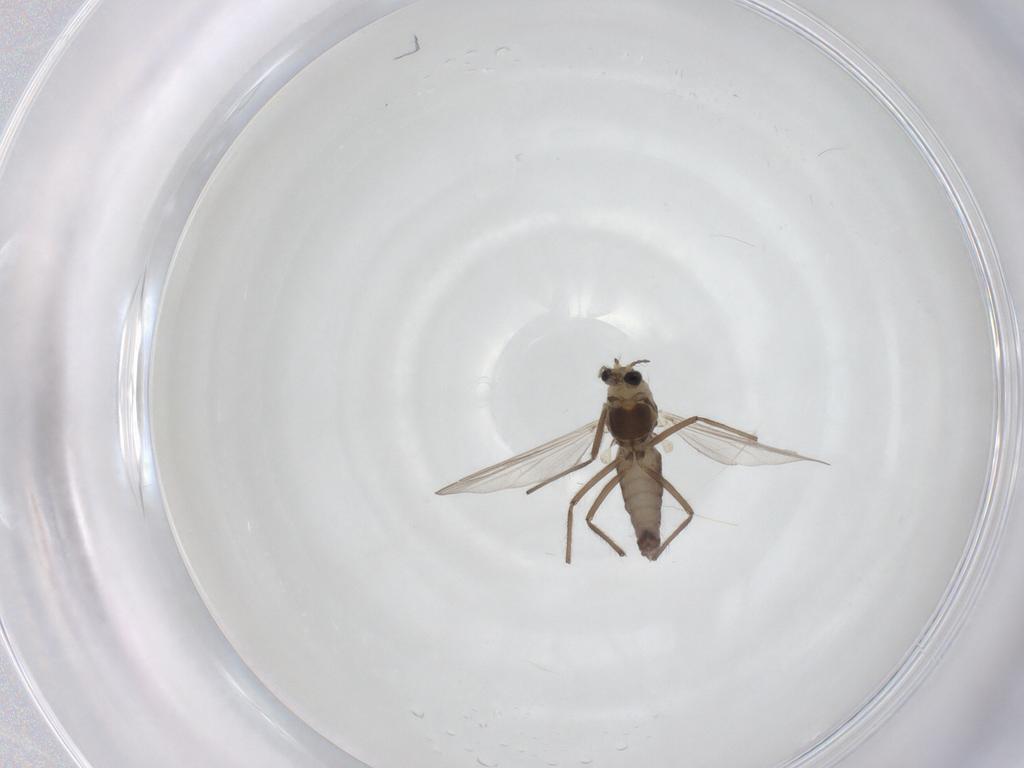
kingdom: Animalia
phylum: Arthropoda
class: Insecta
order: Diptera
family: Chironomidae
